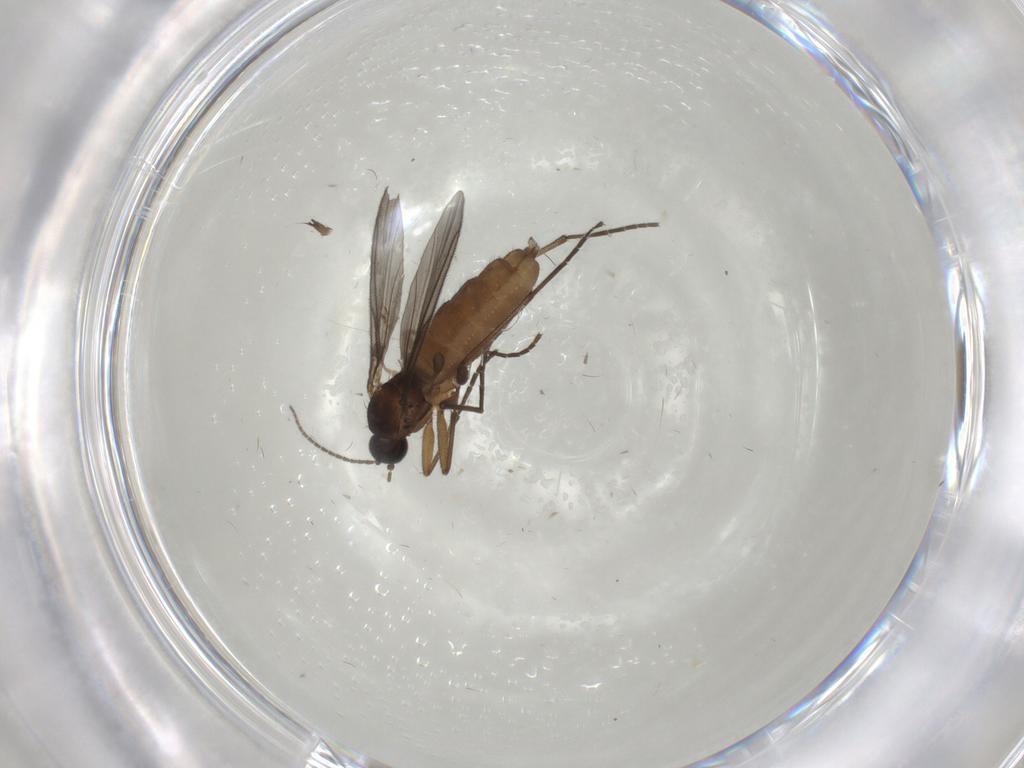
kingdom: Animalia
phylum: Arthropoda
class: Insecta
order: Diptera
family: Cecidomyiidae
